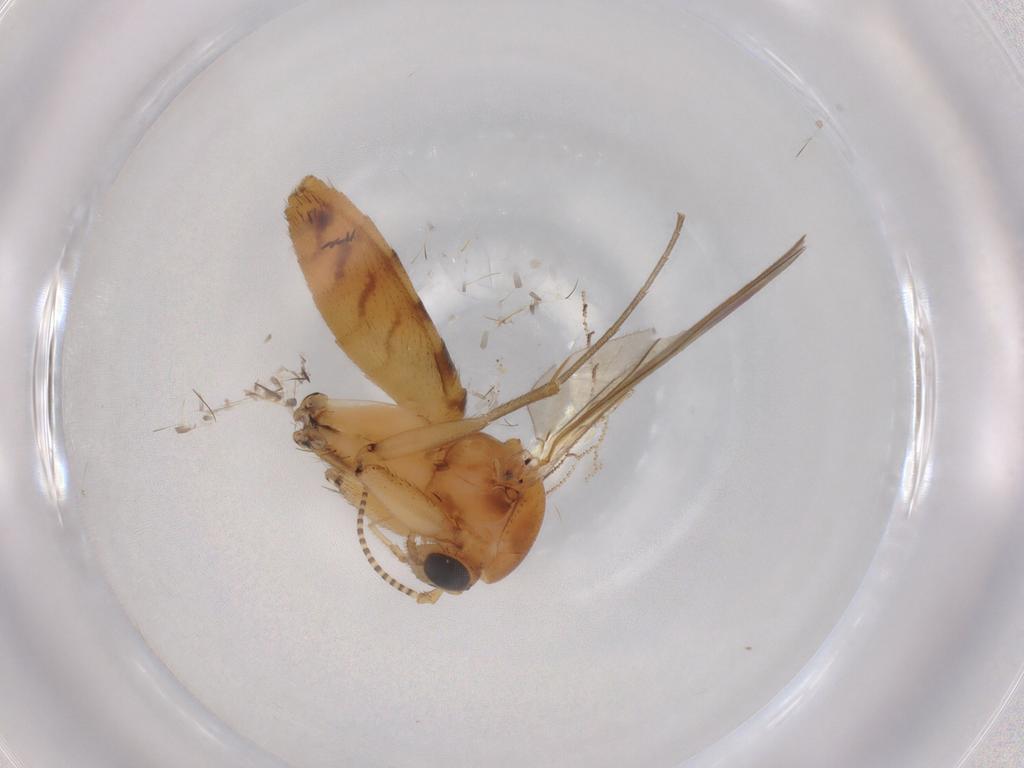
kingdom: Animalia
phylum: Arthropoda
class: Insecta
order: Diptera
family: Mycetophilidae
